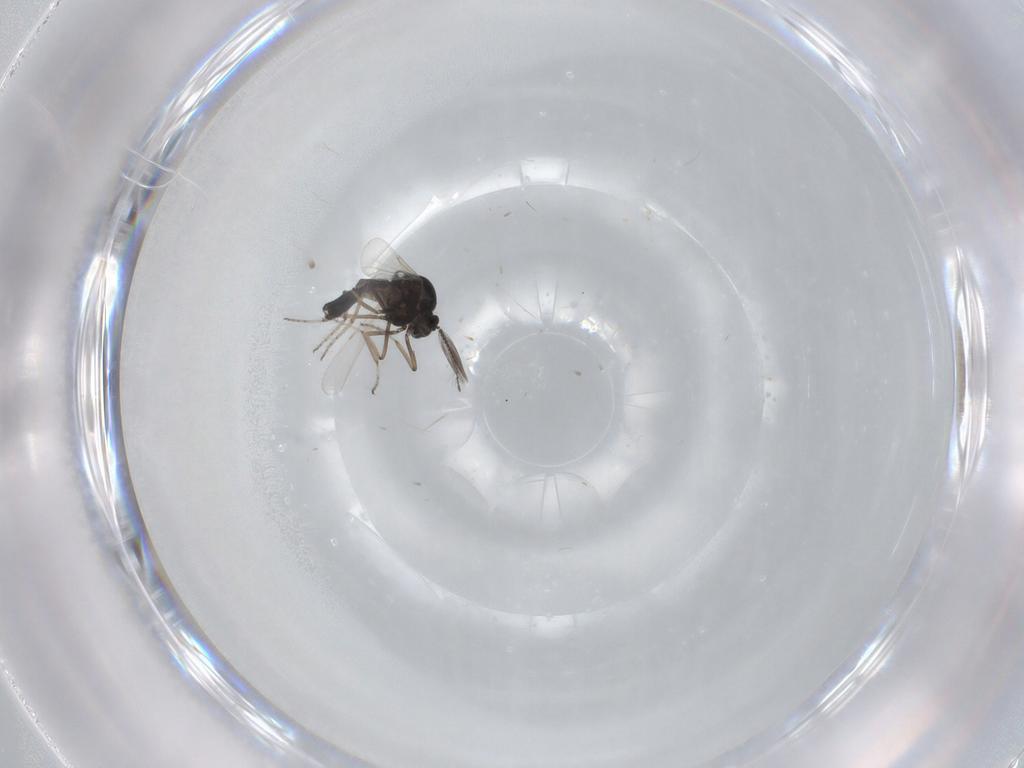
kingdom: Animalia
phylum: Arthropoda
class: Insecta
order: Diptera
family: Ceratopogonidae
